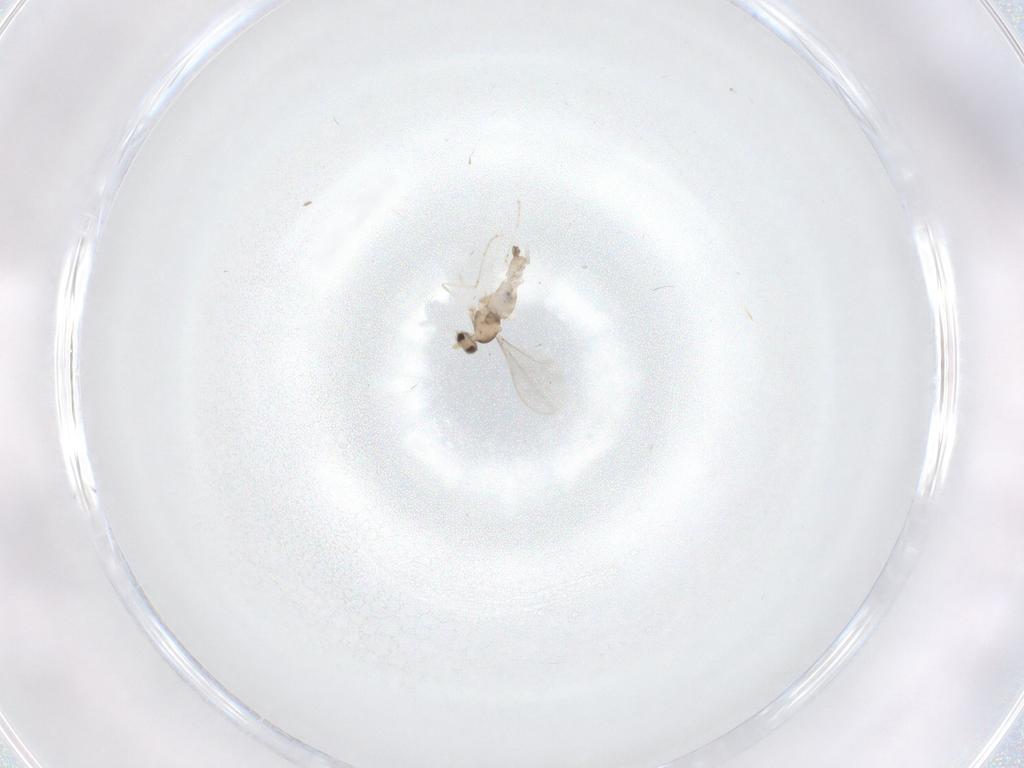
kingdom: Animalia
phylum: Arthropoda
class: Insecta
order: Diptera
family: Cecidomyiidae
